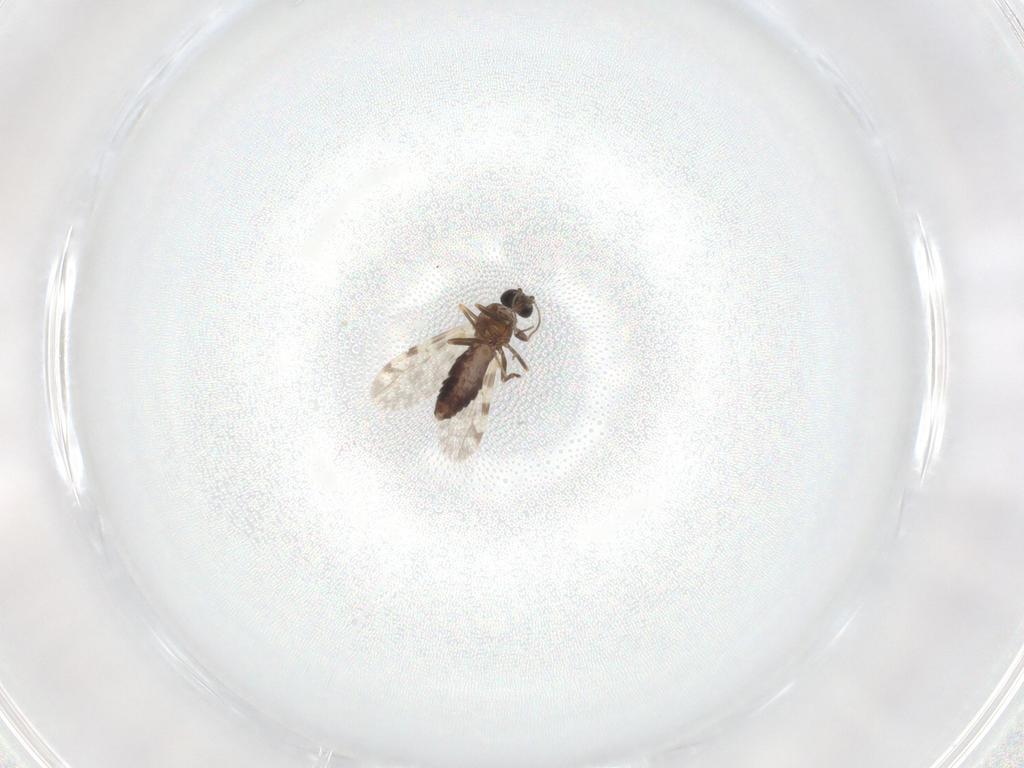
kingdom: Animalia
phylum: Arthropoda
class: Insecta
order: Diptera
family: Ceratopogonidae
